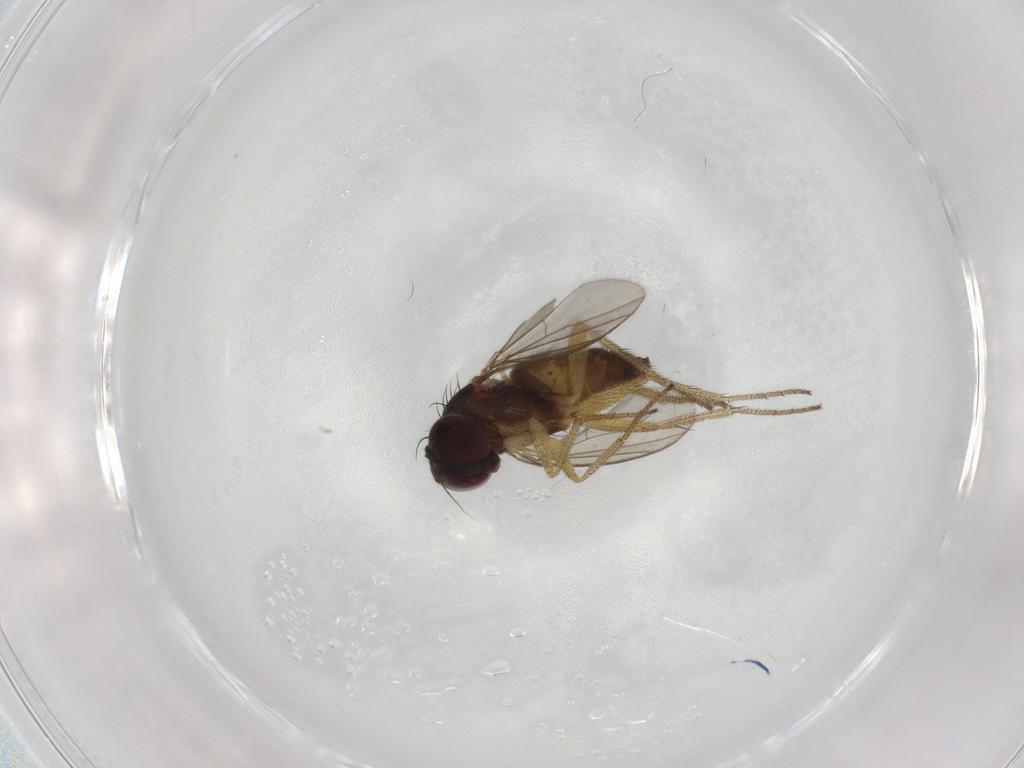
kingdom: Animalia
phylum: Arthropoda
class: Insecta
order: Diptera
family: Dolichopodidae
